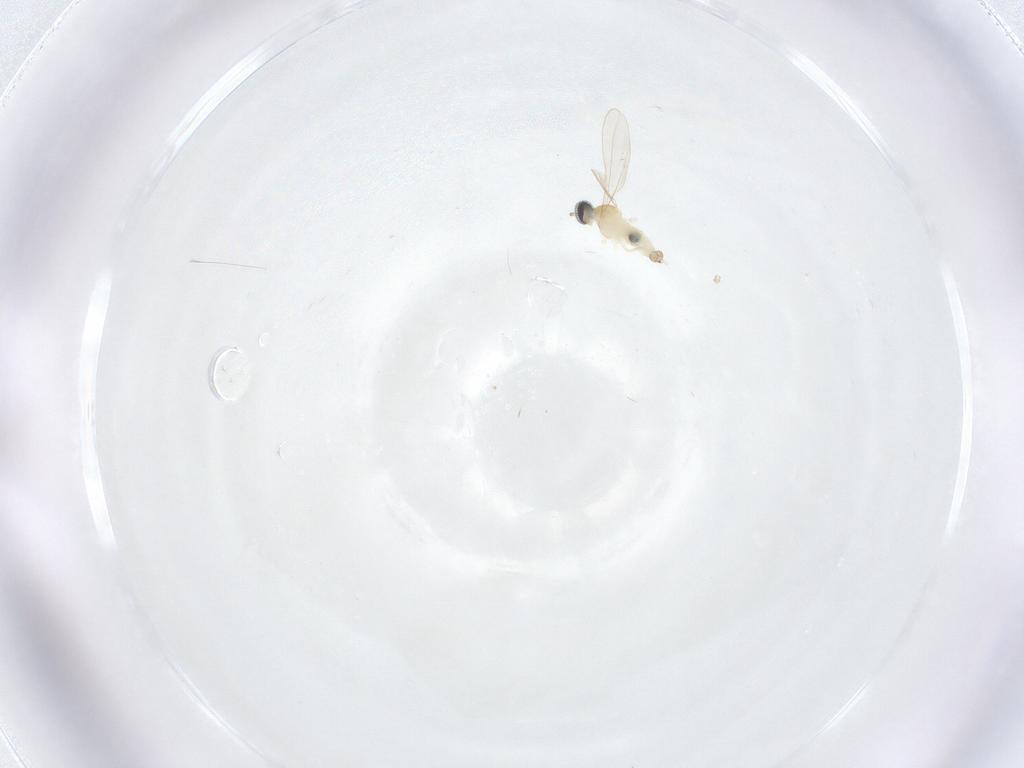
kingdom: Animalia
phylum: Arthropoda
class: Insecta
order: Diptera
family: Cecidomyiidae
